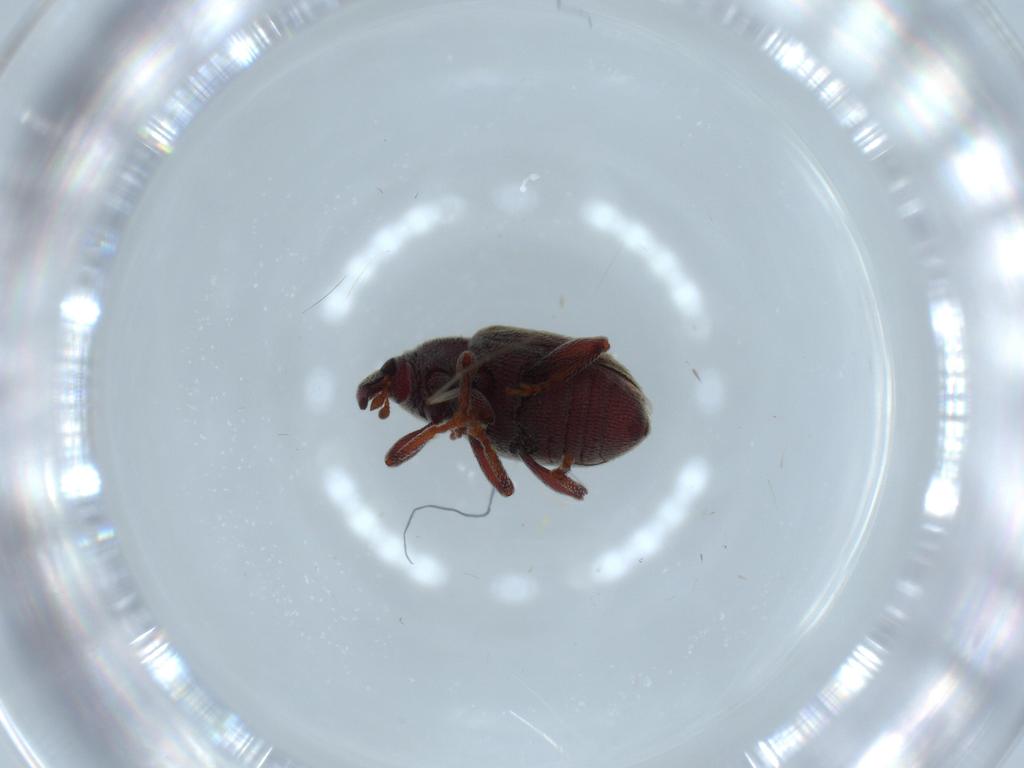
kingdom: Animalia
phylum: Arthropoda
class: Insecta
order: Coleoptera
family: Curculionidae
